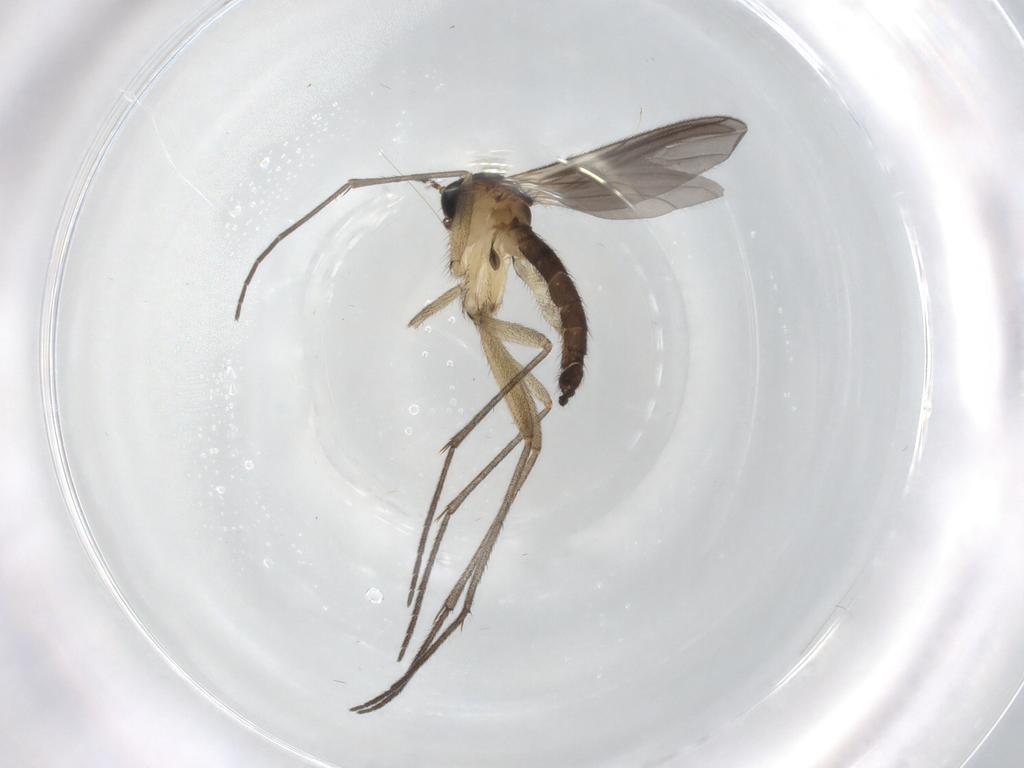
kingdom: Animalia
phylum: Arthropoda
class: Insecta
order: Diptera
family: Sciaridae
